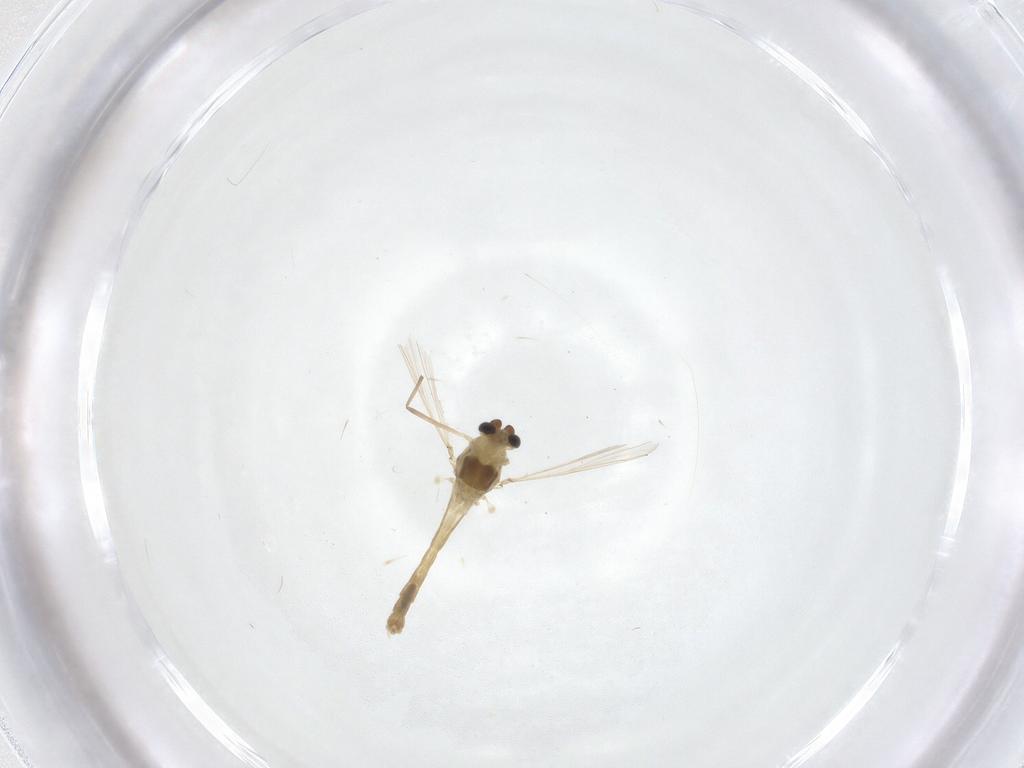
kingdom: Animalia
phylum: Arthropoda
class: Insecta
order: Diptera
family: Chironomidae
